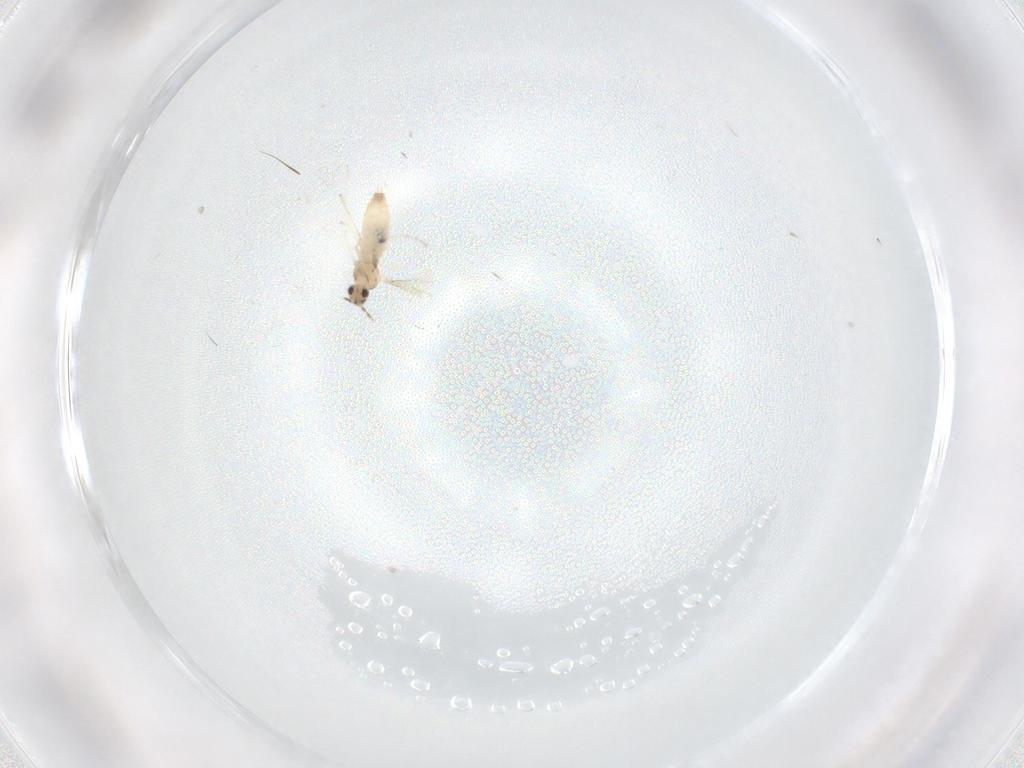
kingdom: Animalia
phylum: Arthropoda
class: Insecta
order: Diptera
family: Cecidomyiidae
